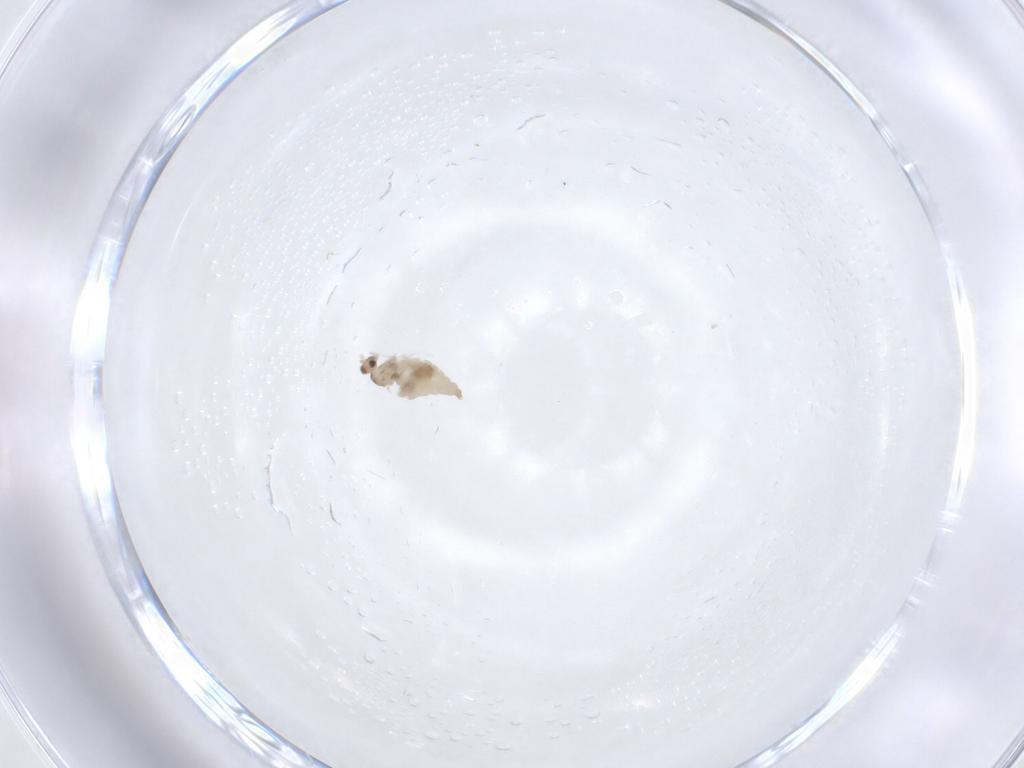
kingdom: Animalia
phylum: Arthropoda
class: Insecta
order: Diptera
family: Cecidomyiidae
